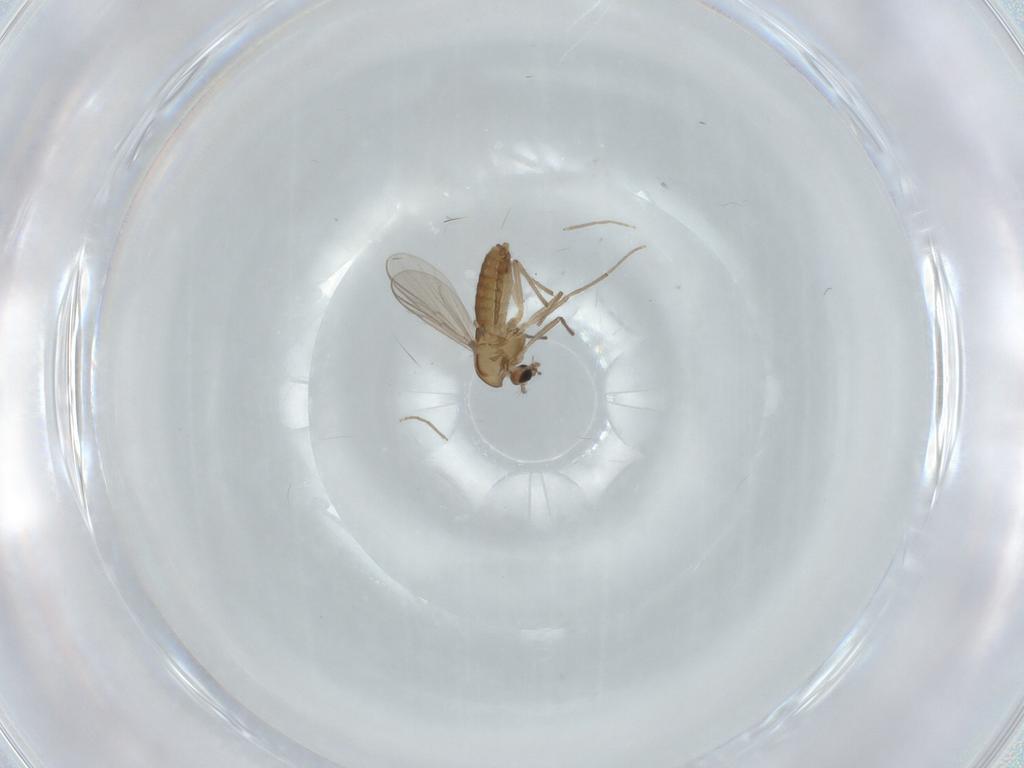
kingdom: Animalia
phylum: Arthropoda
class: Insecta
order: Diptera
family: Chironomidae
